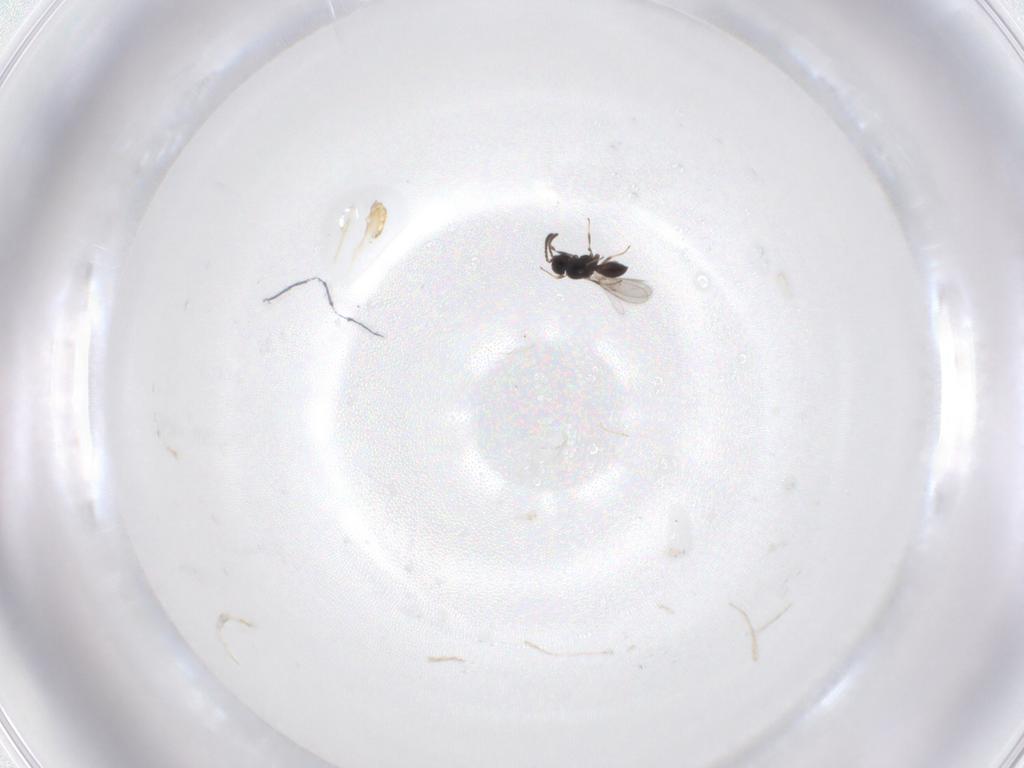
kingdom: Animalia
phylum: Arthropoda
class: Insecta
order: Hymenoptera
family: Scelionidae
